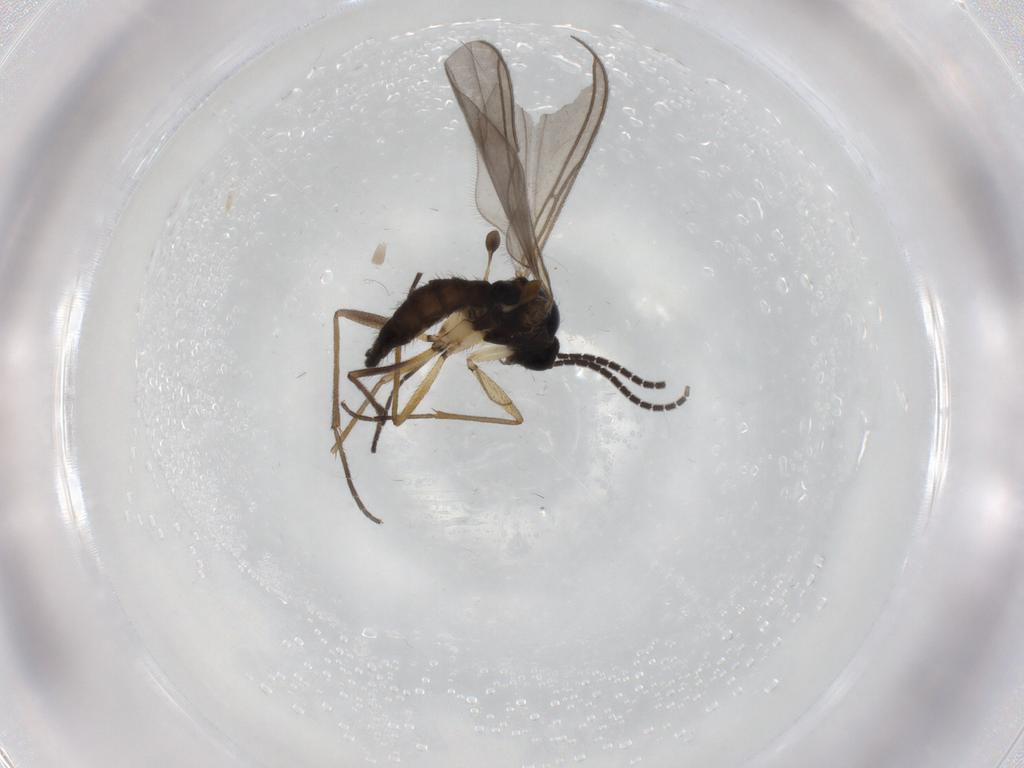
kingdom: Animalia
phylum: Arthropoda
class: Insecta
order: Diptera
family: Sciaridae
